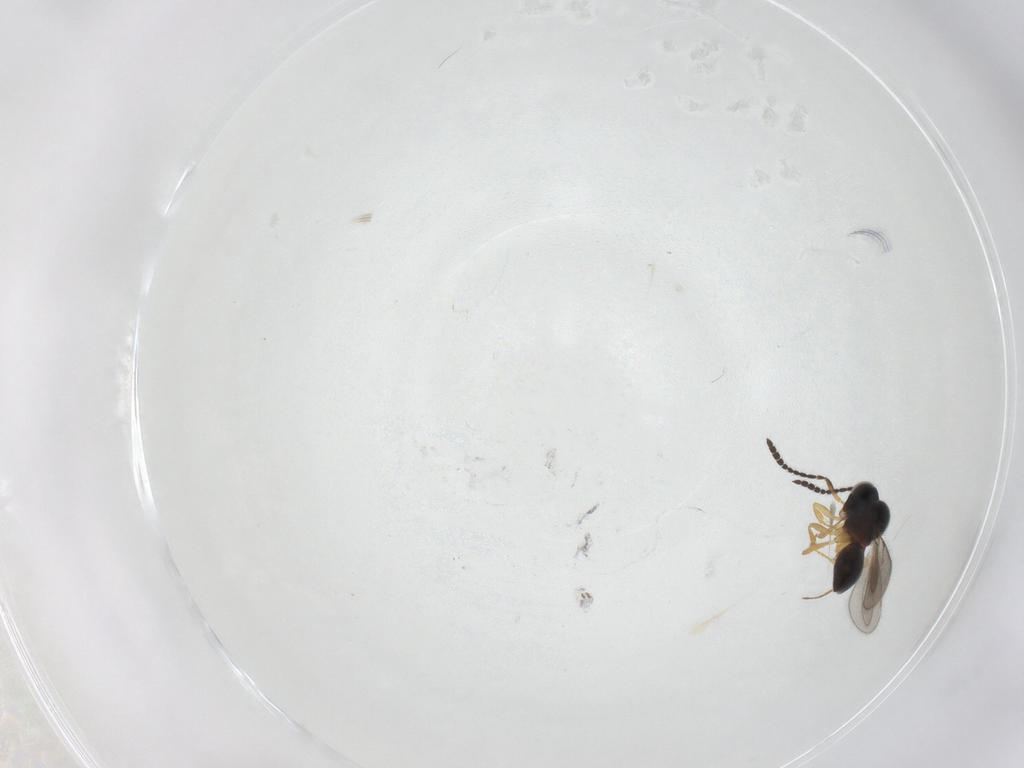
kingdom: Animalia
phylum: Arthropoda
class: Insecta
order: Hymenoptera
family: Scelionidae
